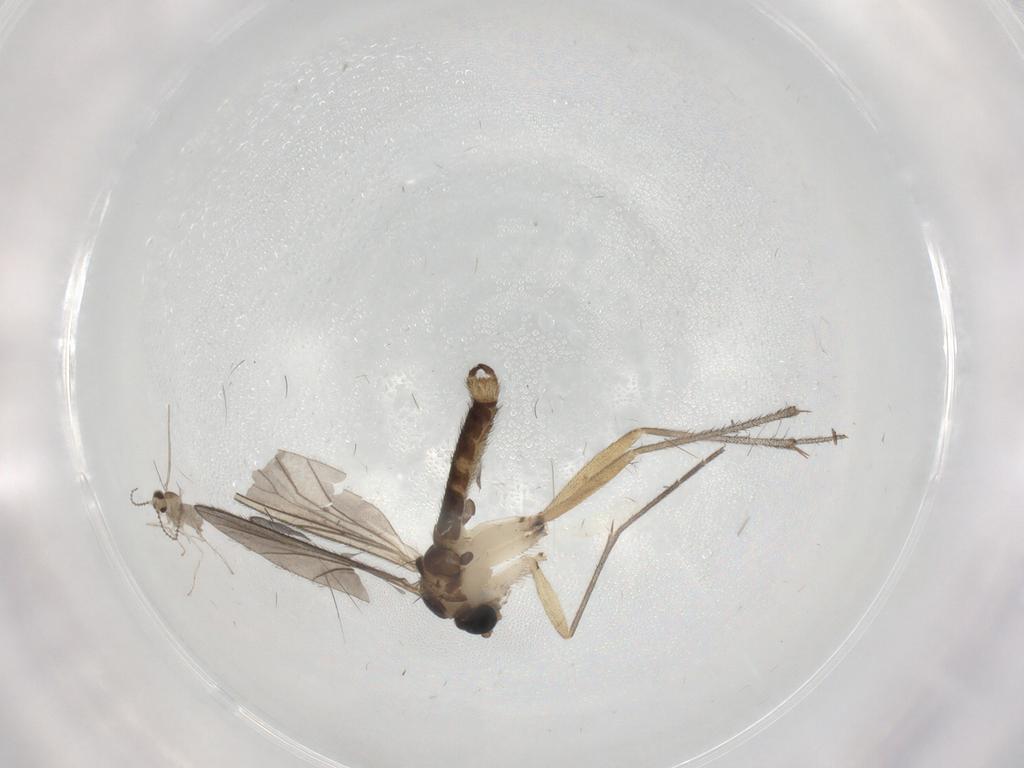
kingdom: Animalia
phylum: Arthropoda
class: Insecta
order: Diptera
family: Sciaridae
